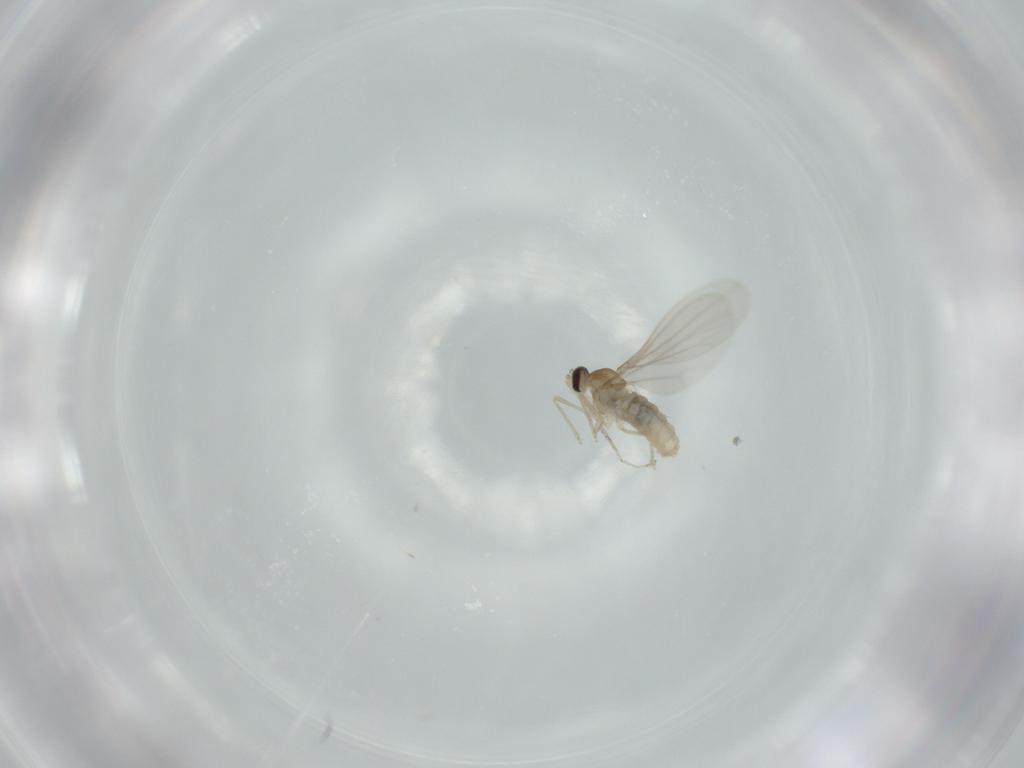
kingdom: Animalia
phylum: Arthropoda
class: Insecta
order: Diptera
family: Cecidomyiidae
